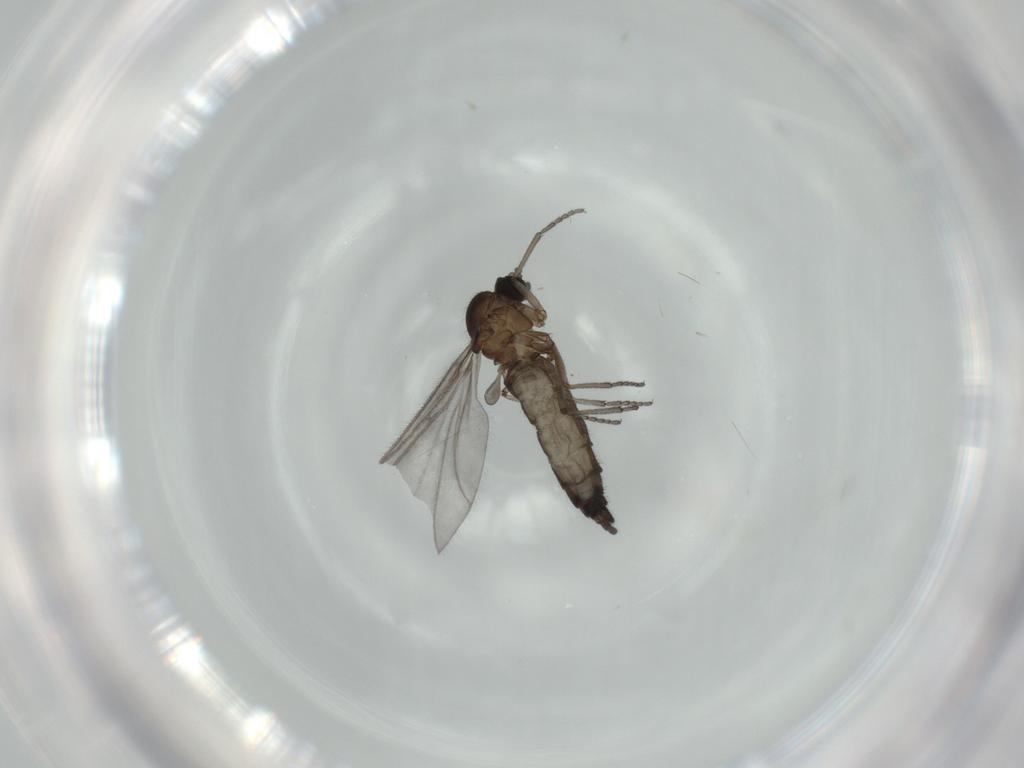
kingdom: Animalia
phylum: Arthropoda
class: Insecta
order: Diptera
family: Sciaridae
